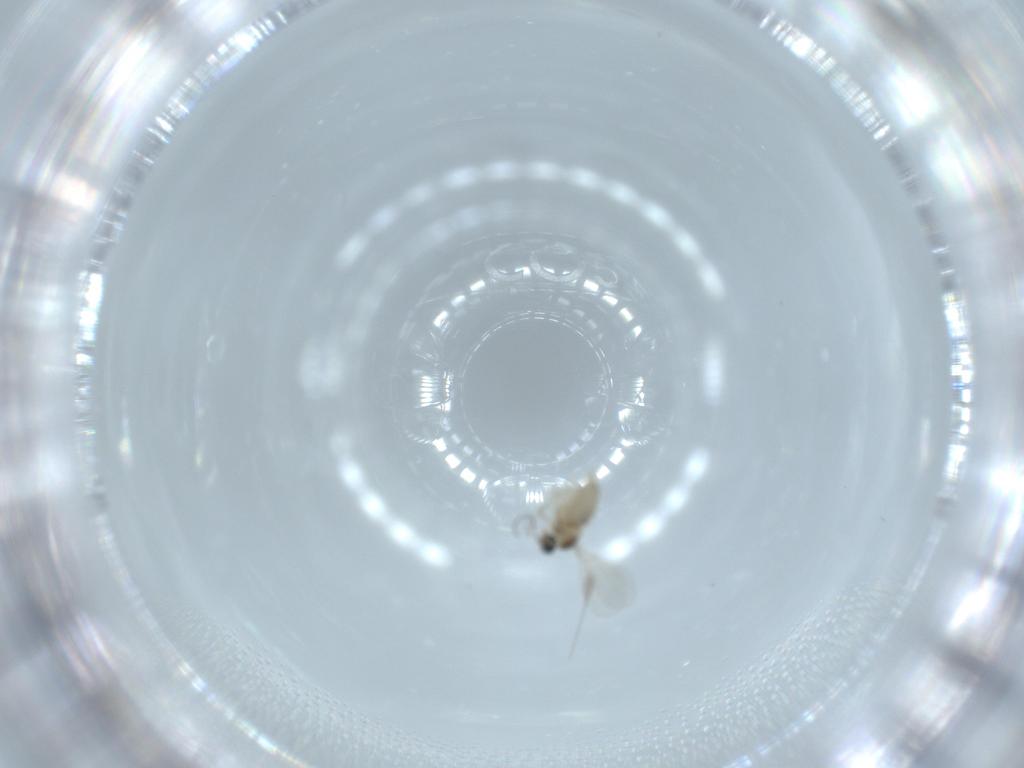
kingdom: Animalia
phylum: Arthropoda
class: Insecta
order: Diptera
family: Cecidomyiidae
